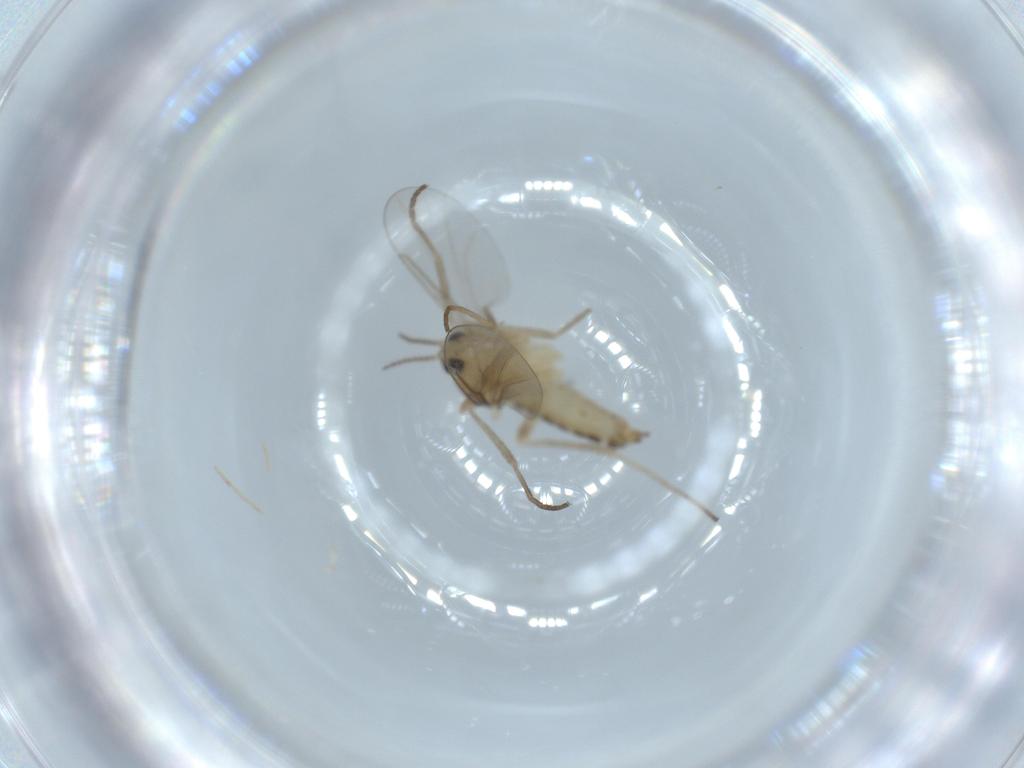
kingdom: Animalia
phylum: Arthropoda
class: Insecta
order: Diptera
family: Cecidomyiidae
